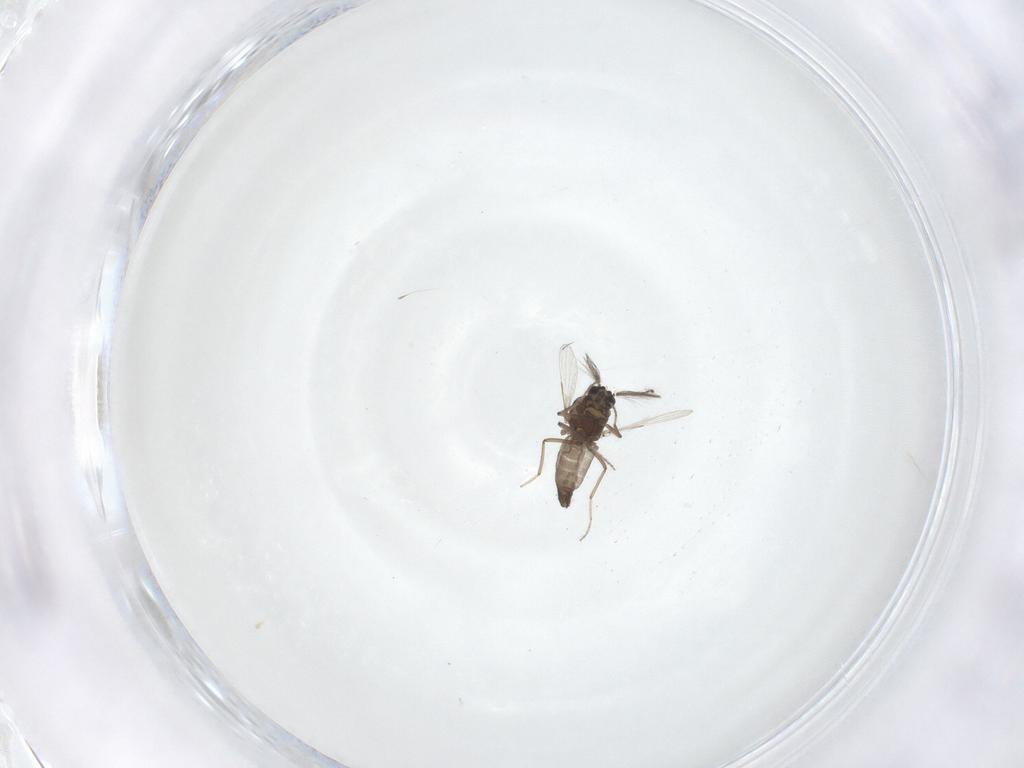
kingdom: Animalia
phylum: Arthropoda
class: Insecta
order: Diptera
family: Ceratopogonidae
